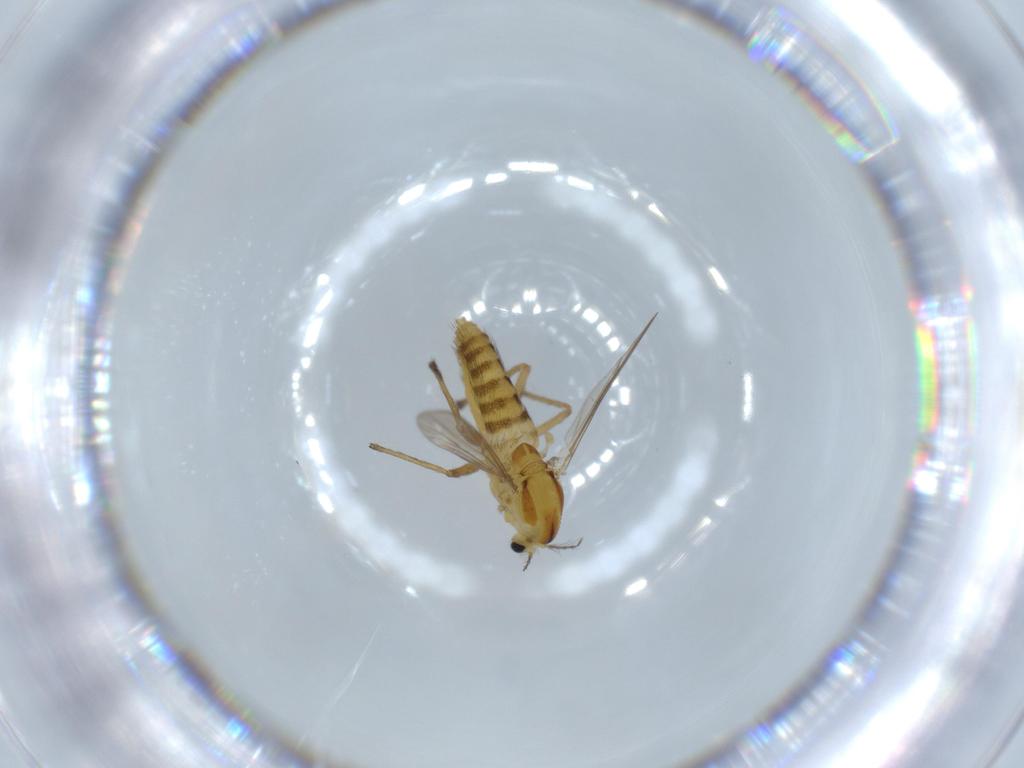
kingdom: Animalia
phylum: Arthropoda
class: Insecta
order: Diptera
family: Chironomidae
